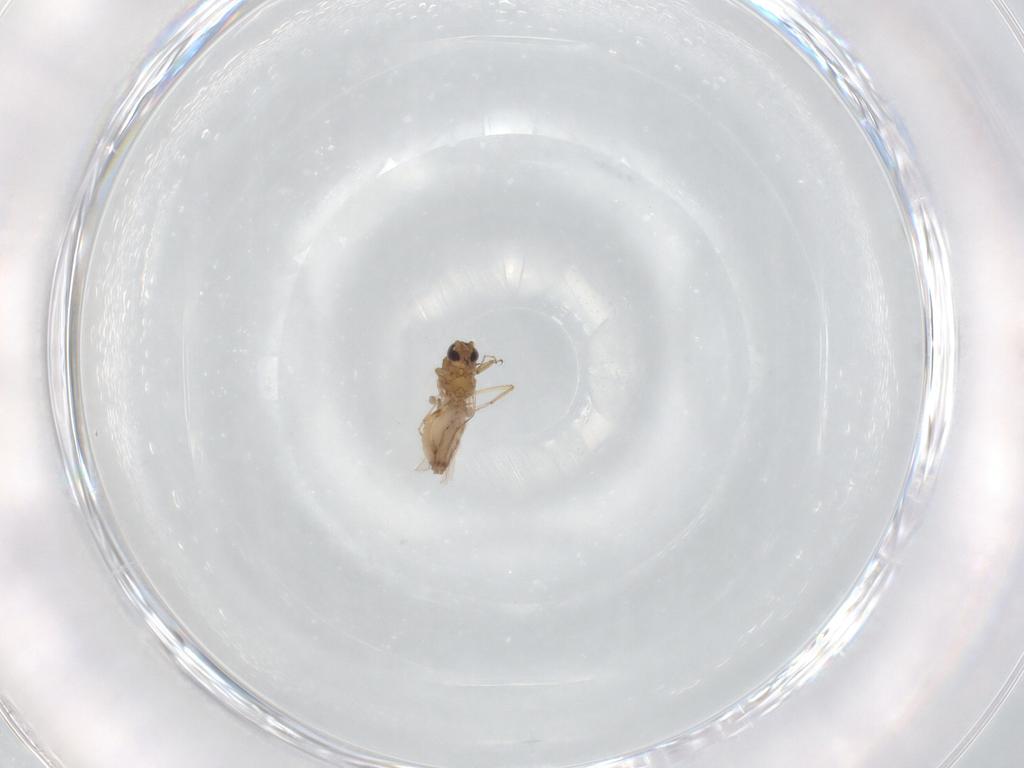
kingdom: Animalia
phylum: Arthropoda
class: Insecta
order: Diptera
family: Ceratopogonidae
